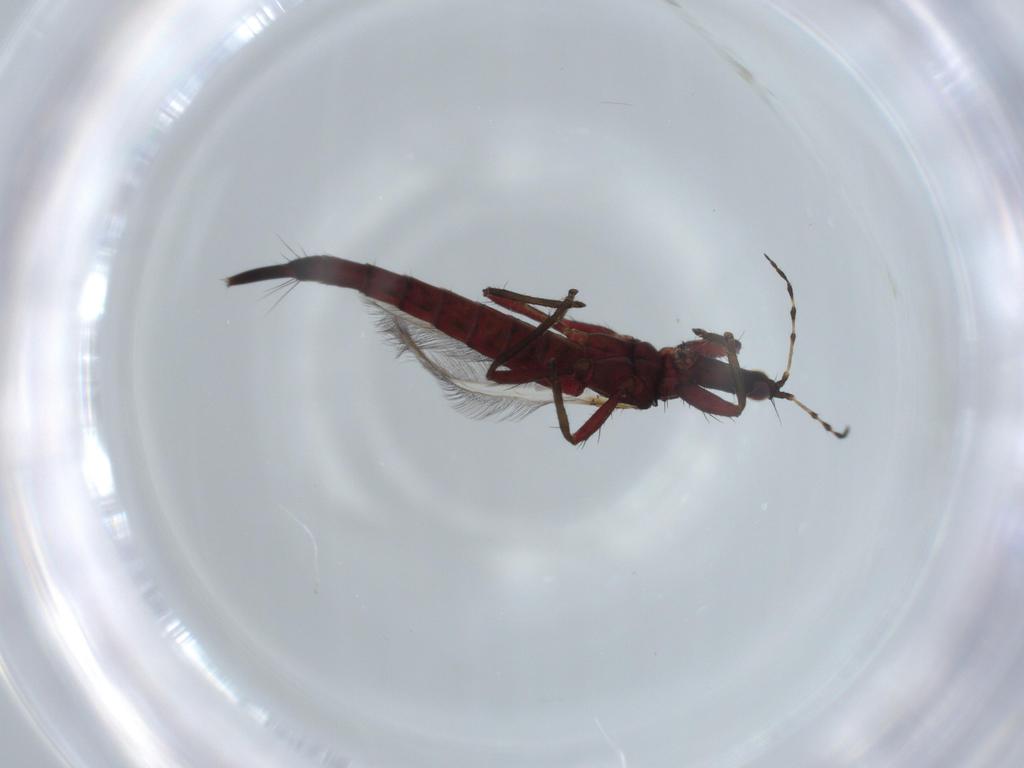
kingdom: Animalia
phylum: Arthropoda
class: Insecta
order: Thysanoptera
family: Phlaeothripidae
